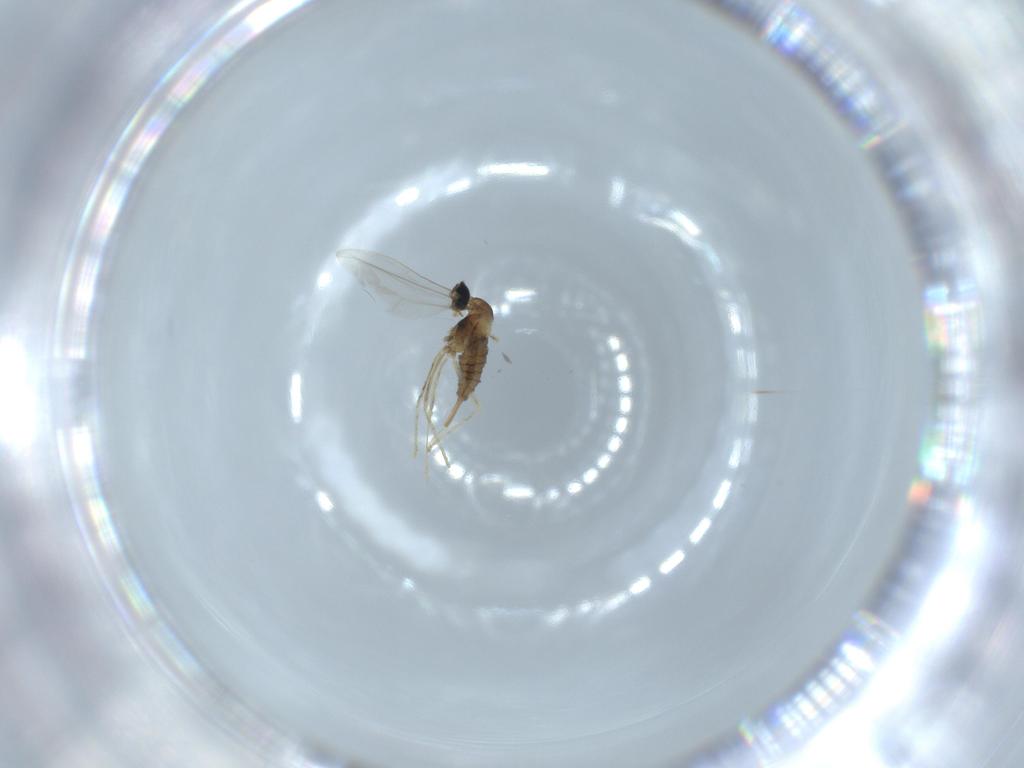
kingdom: Animalia
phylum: Arthropoda
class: Insecta
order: Diptera
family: Cecidomyiidae
